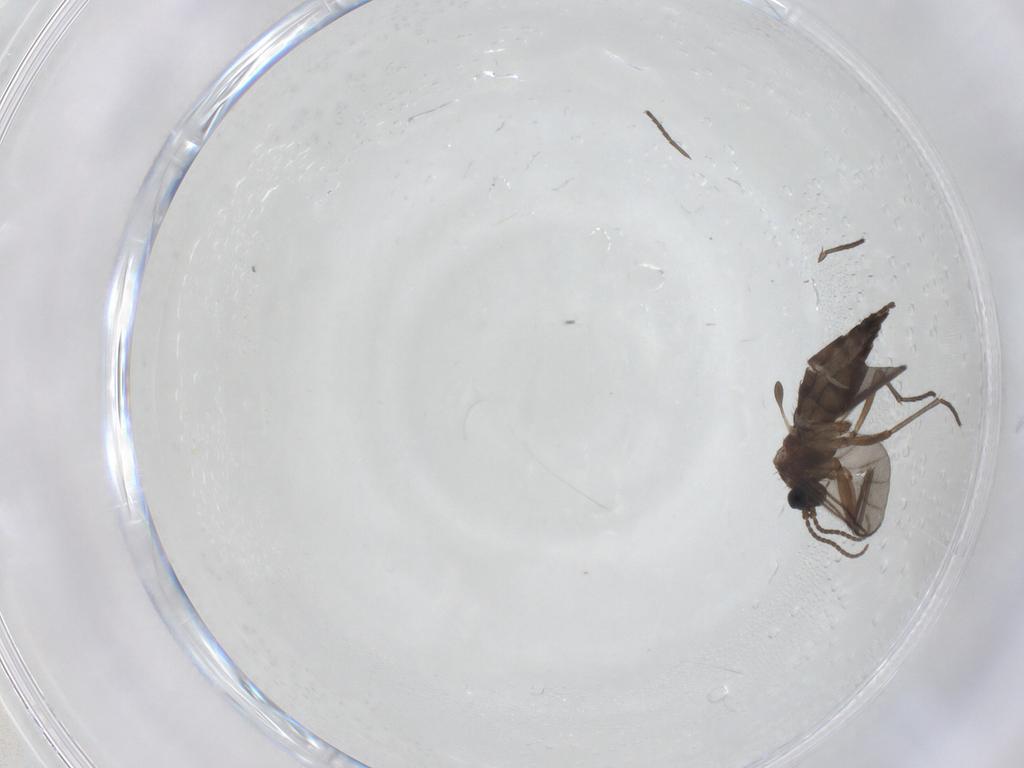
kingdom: Animalia
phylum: Arthropoda
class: Insecta
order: Diptera
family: Sciaridae
